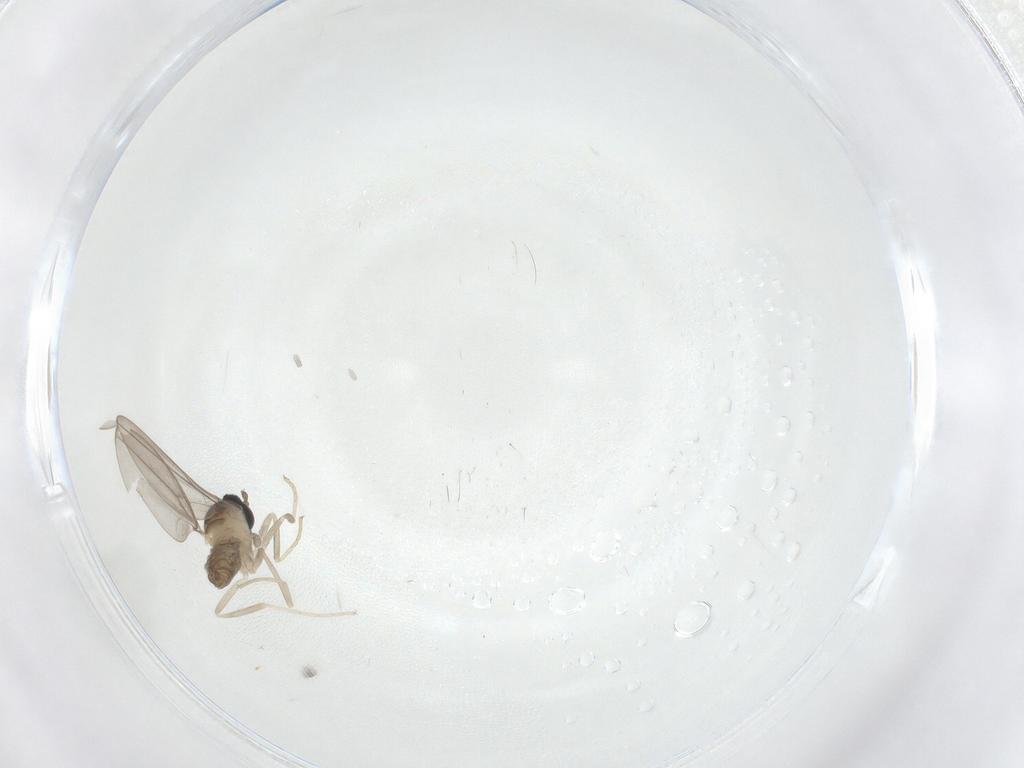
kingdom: Animalia
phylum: Arthropoda
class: Insecta
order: Diptera
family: Cecidomyiidae
